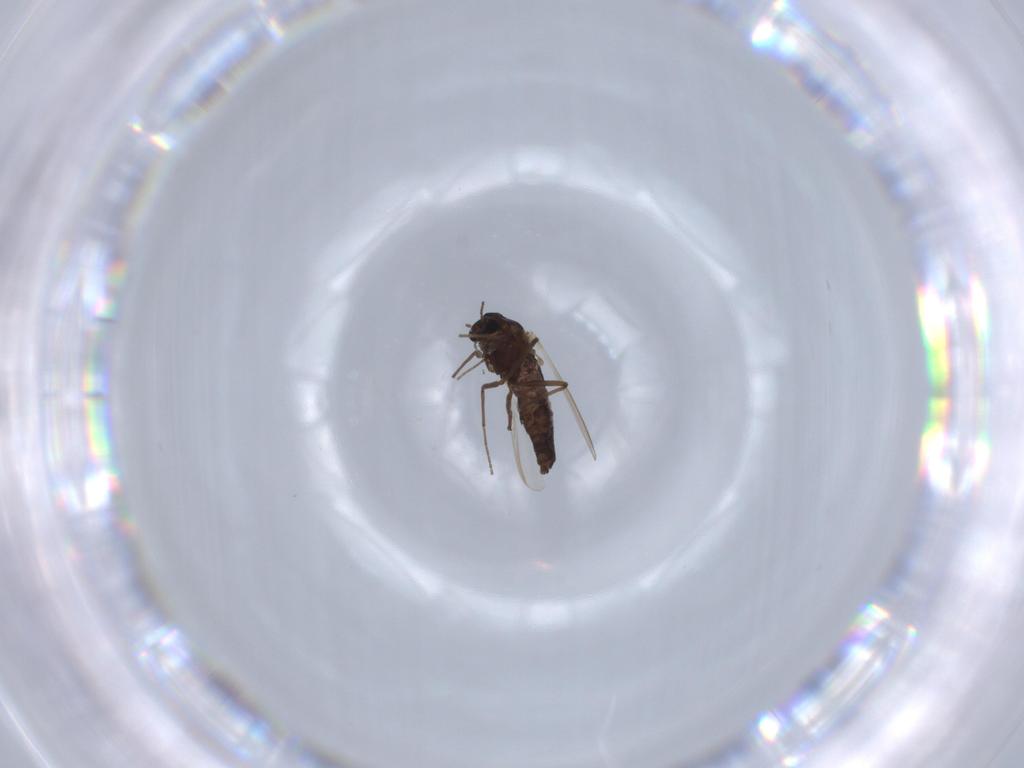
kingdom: Animalia
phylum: Arthropoda
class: Insecta
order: Diptera
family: Chironomidae
